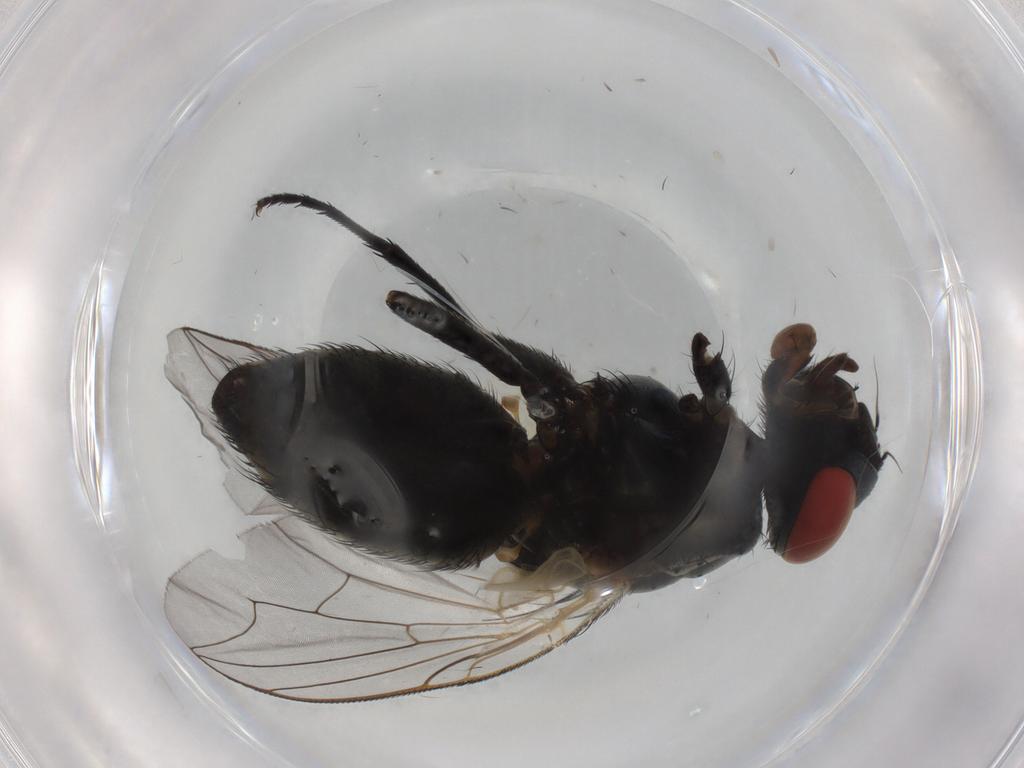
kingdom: Animalia
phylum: Arthropoda
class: Insecta
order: Diptera
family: Sarcophagidae
